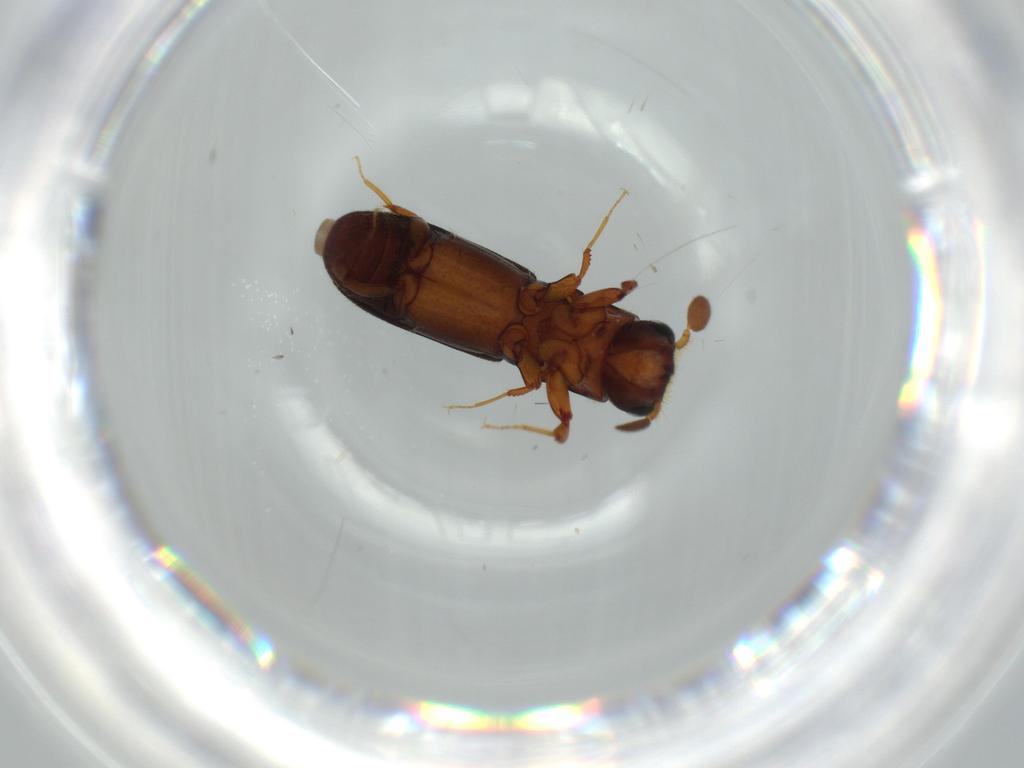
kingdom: Animalia
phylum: Arthropoda
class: Insecta
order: Coleoptera
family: Curculionidae
